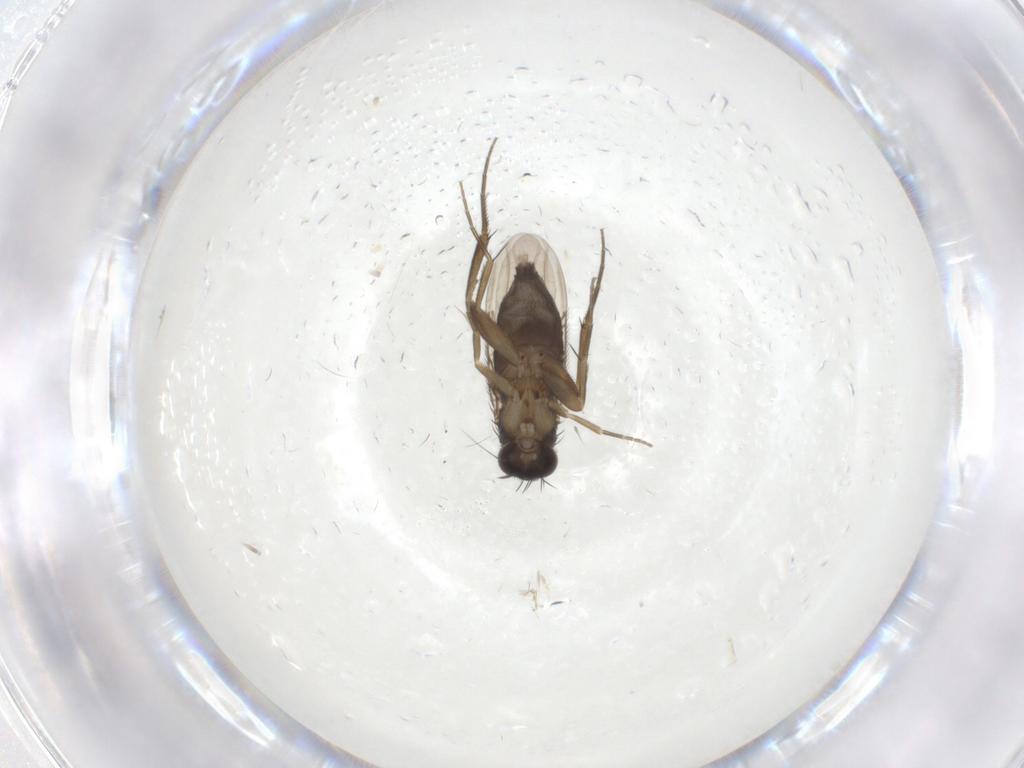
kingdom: Animalia
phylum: Arthropoda
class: Insecta
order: Diptera
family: Phoridae
